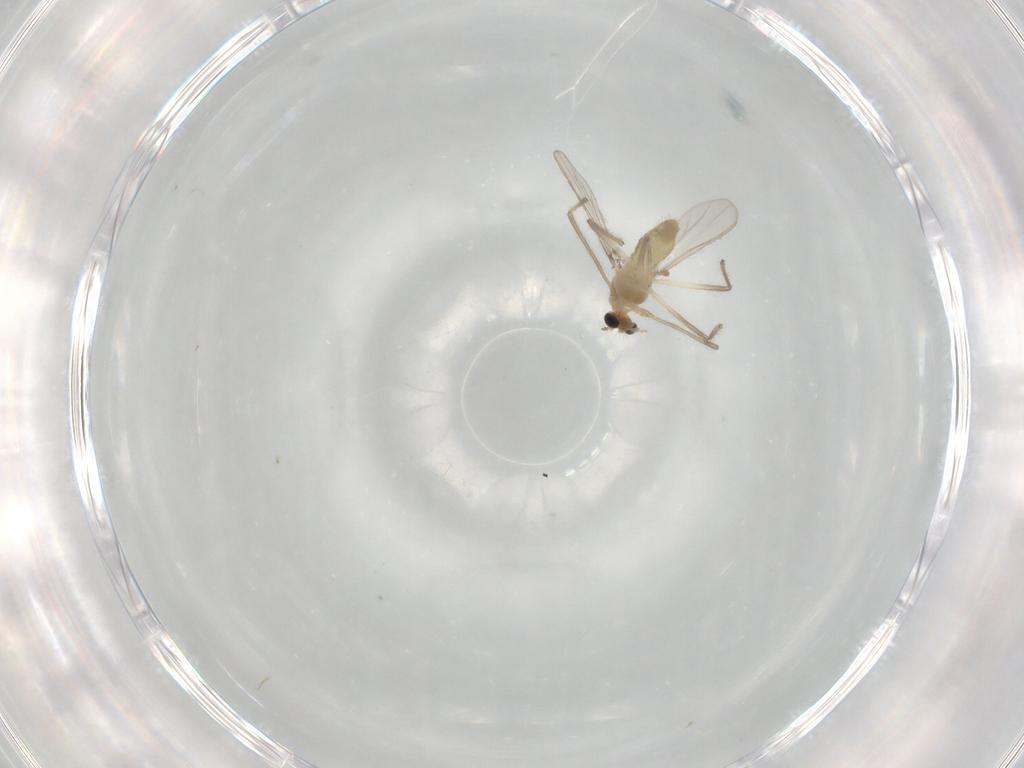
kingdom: Animalia
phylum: Arthropoda
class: Insecta
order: Diptera
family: Chironomidae
